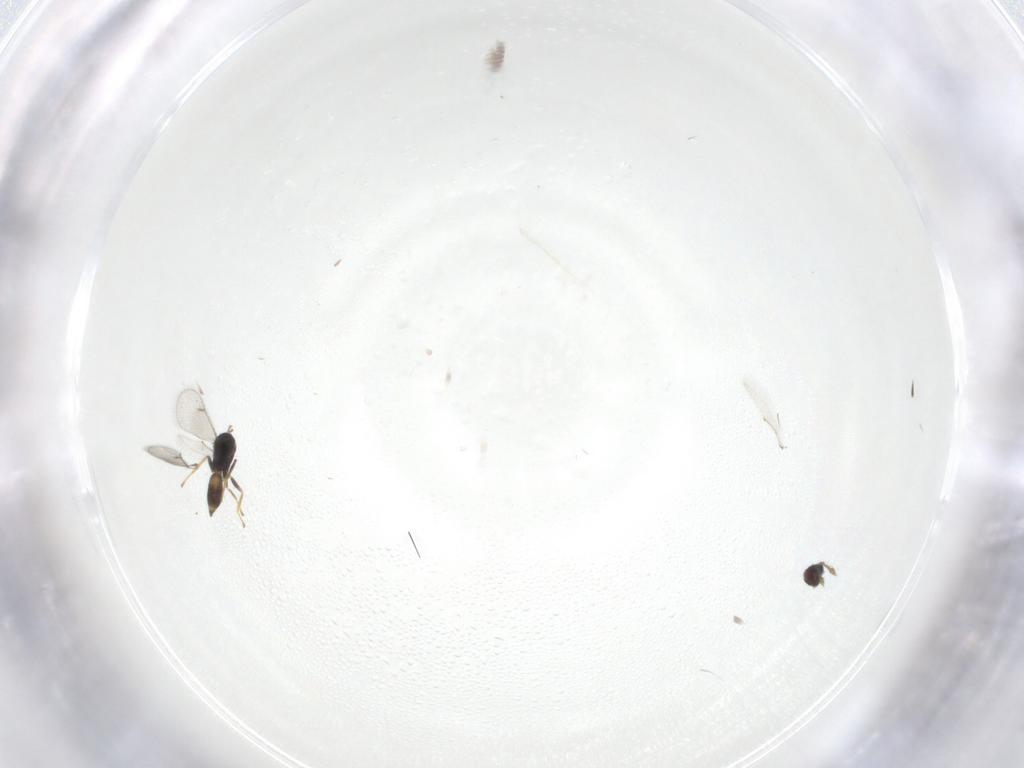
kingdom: Animalia
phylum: Arthropoda
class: Insecta
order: Hymenoptera
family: Eulophidae
